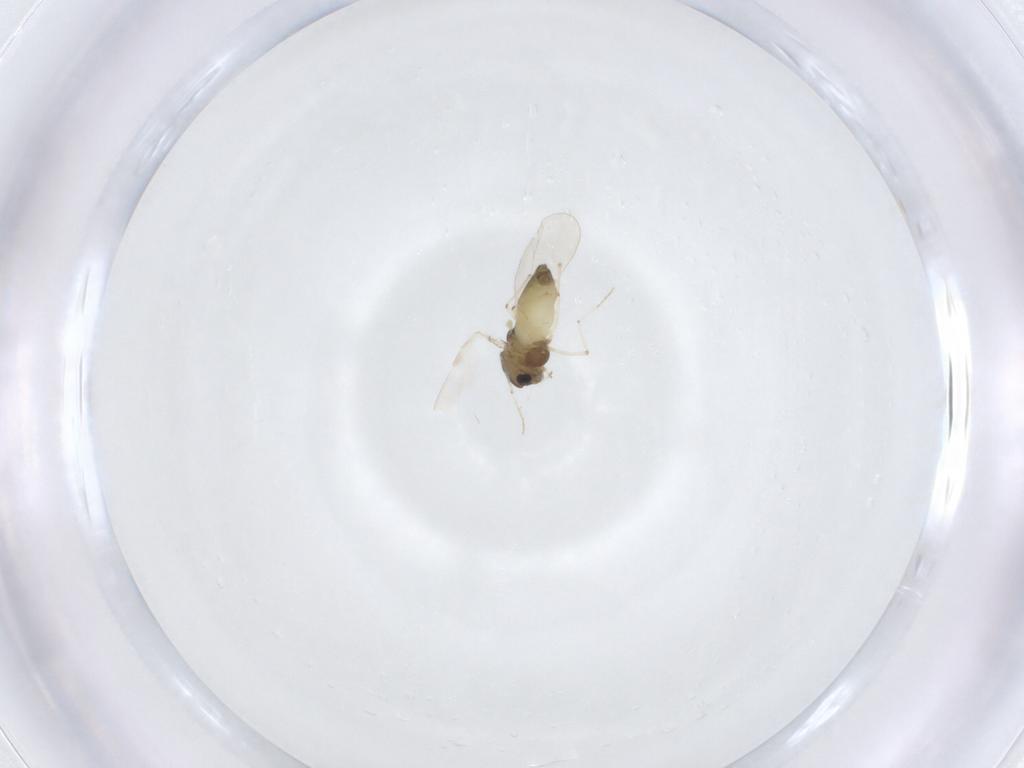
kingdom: Animalia
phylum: Arthropoda
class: Insecta
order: Diptera
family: Chironomidae
